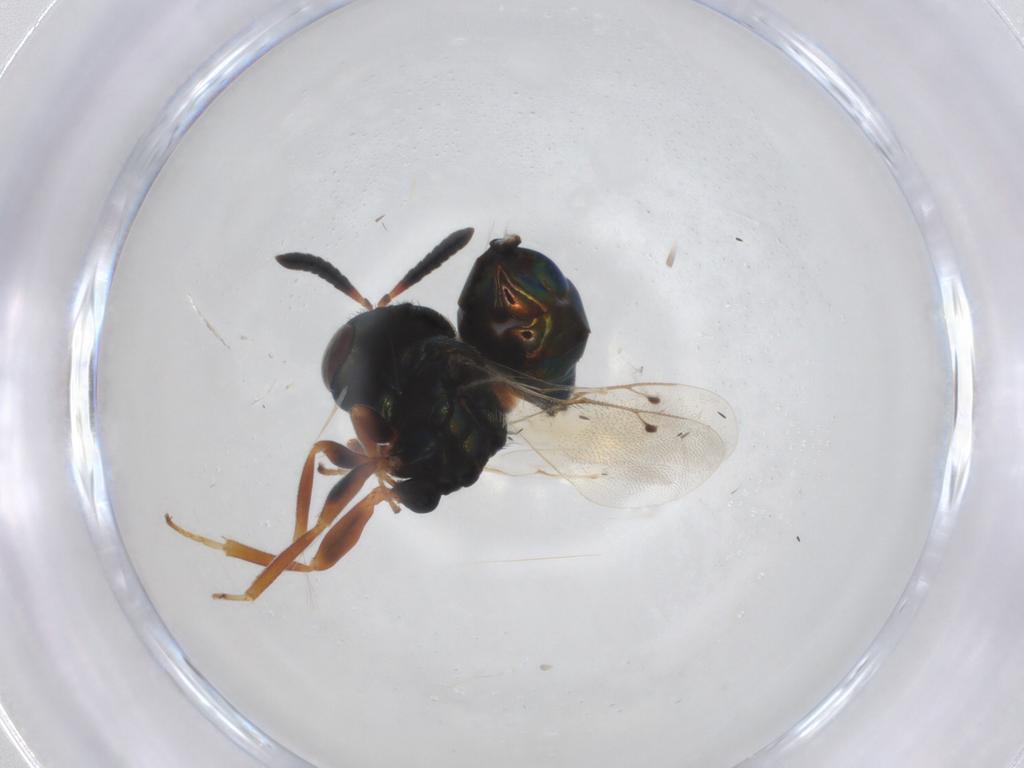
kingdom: Animalia
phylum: Arthropoda
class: Insecta
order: Hymenoptera
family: Pteromalidae
